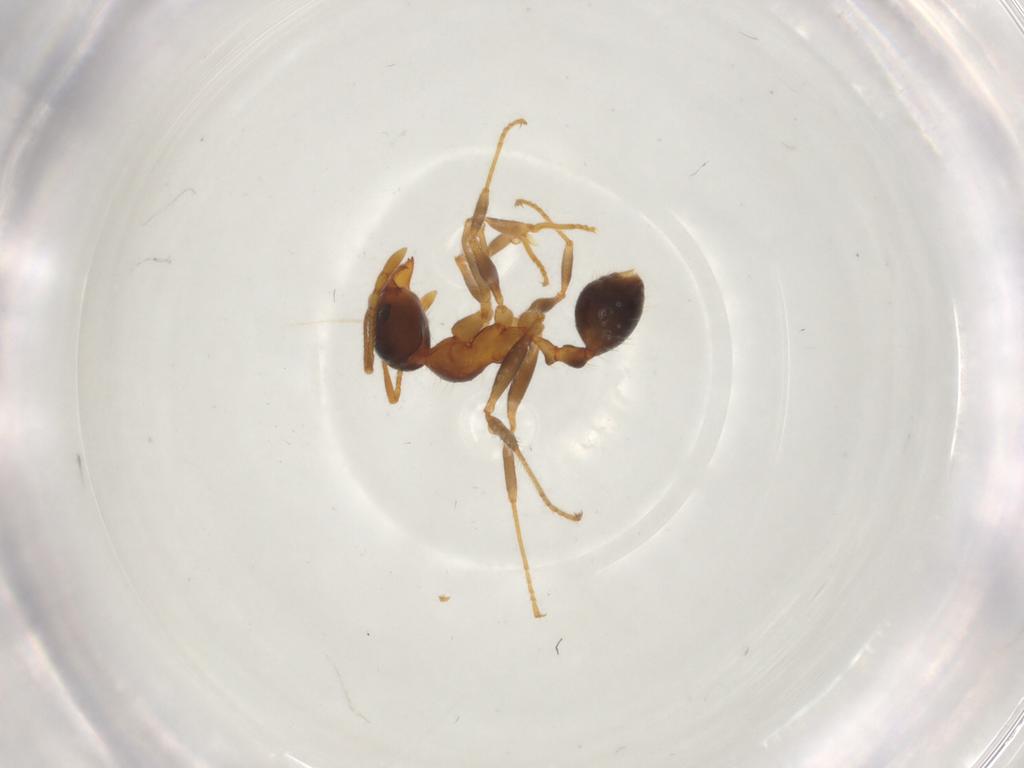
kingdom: Animalia
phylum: Arthropoda
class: Insecta
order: Hymenoptera
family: Formicidae
